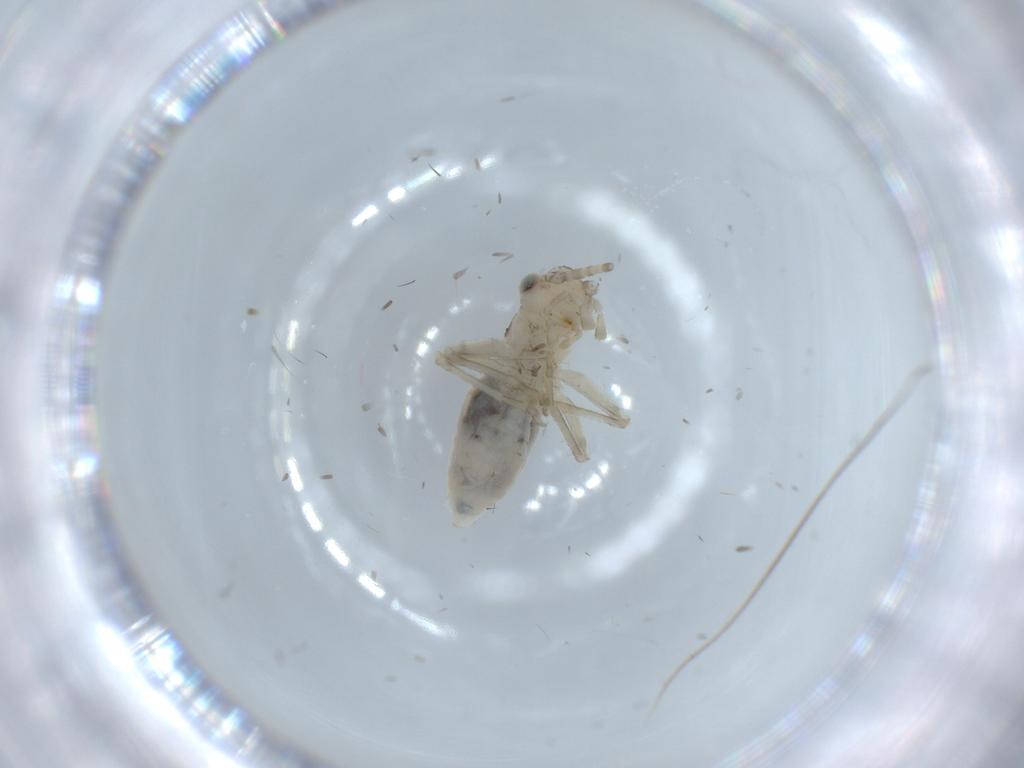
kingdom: Animalia
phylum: Arthropoda
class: Insecta
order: Orthoptera
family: Trigonidiidae
